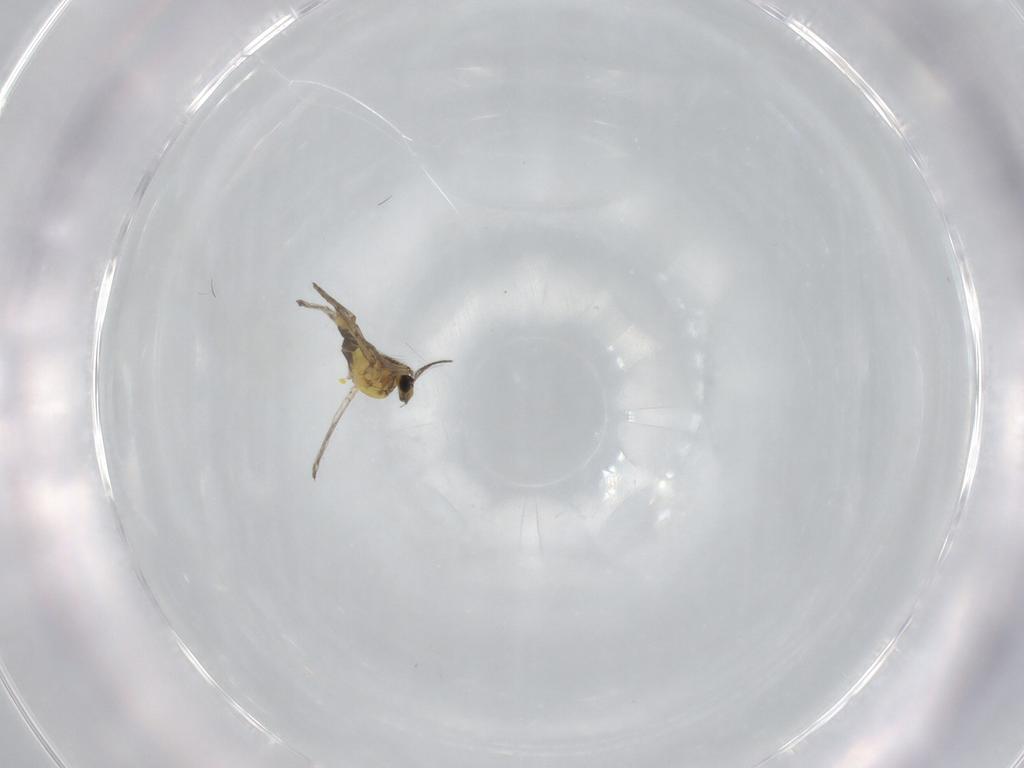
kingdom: Animalia
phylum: Arthropoda
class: Insecta
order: Diptera
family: Ceratopogonidae
